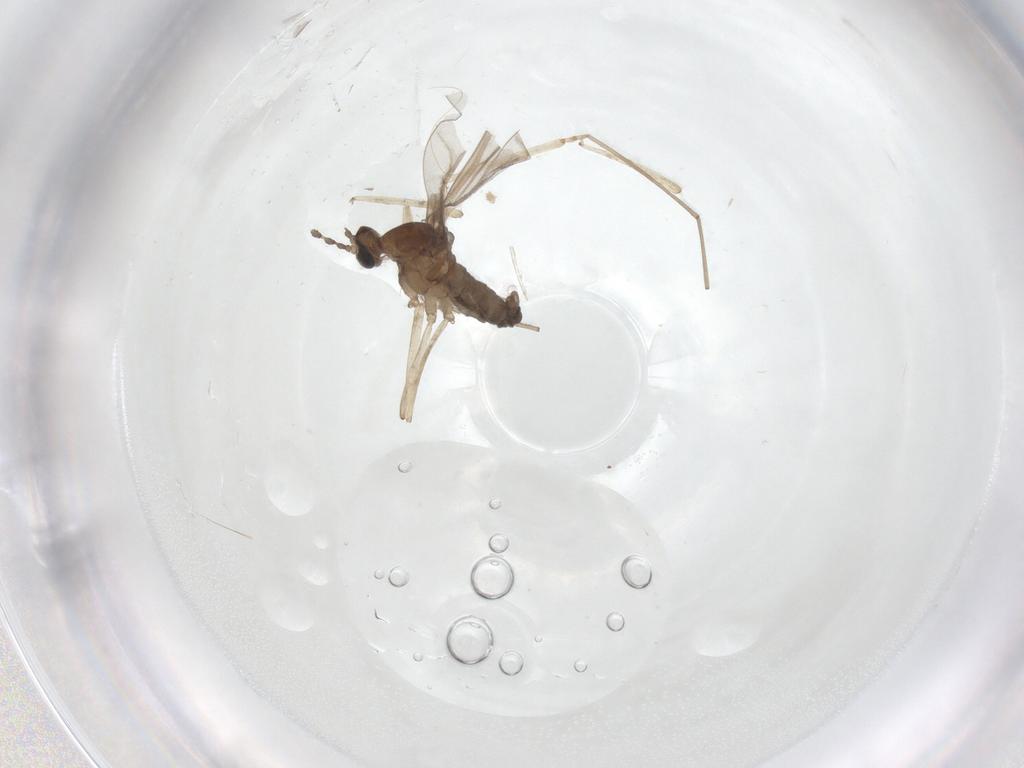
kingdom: Animalia
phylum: Arthropoda
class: Insecta
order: Diptera
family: Cecidomyiidae
